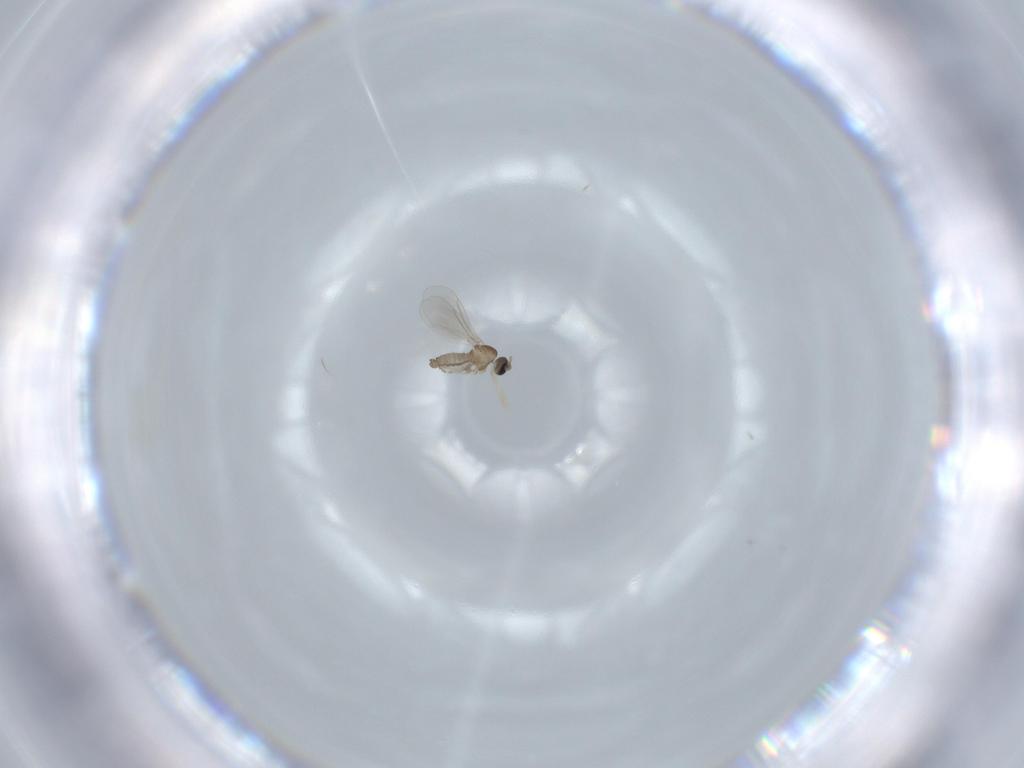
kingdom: Animalia
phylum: Arthropoda
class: Insecta
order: Diptera
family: Cecidomyiidae
